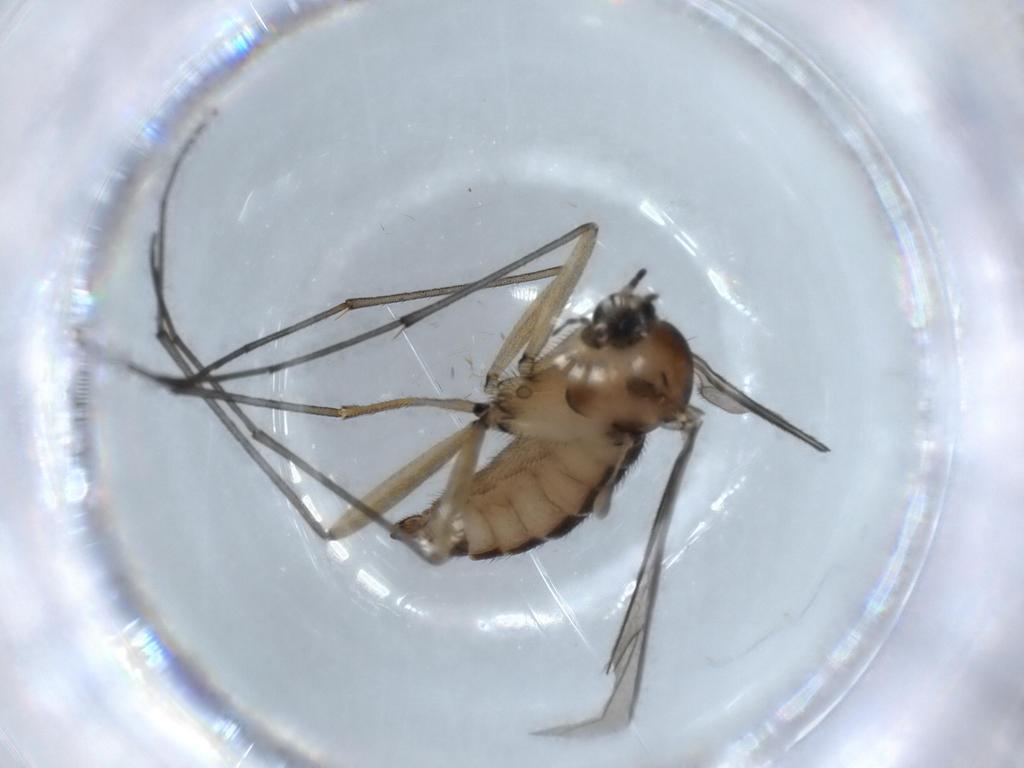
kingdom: Animalia
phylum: Arthropoda
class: Insecta
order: Diptera
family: Sciaridae
